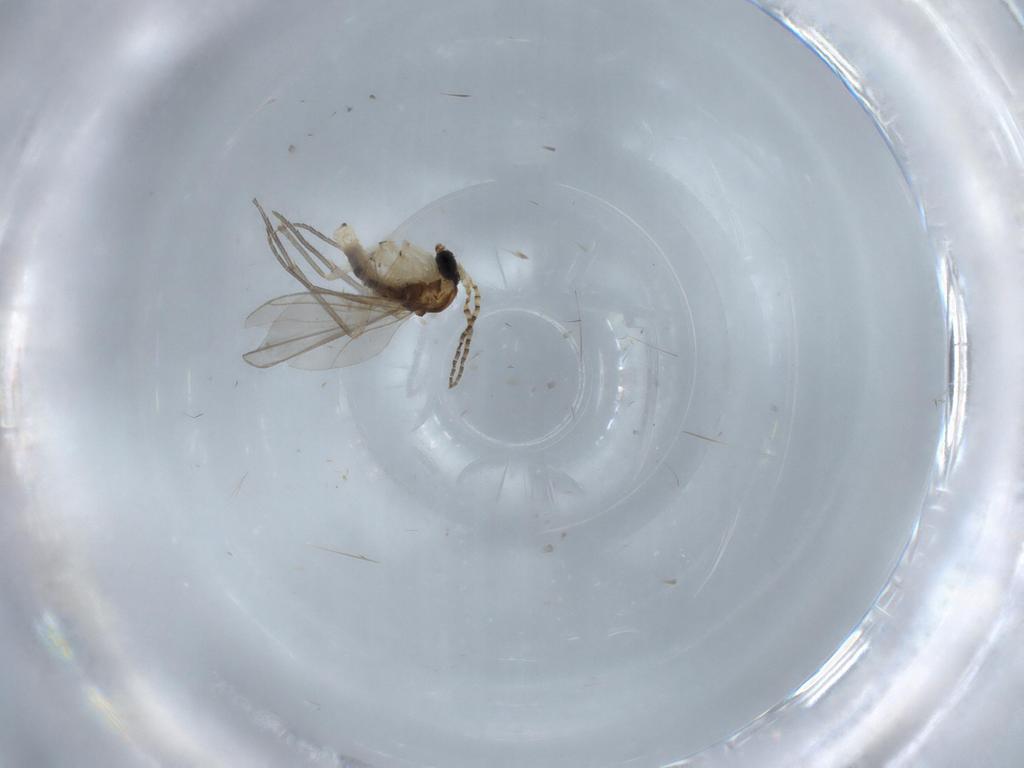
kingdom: Animalia
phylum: Arthropoda
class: Insecta
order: Diptera
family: Sciaridae
